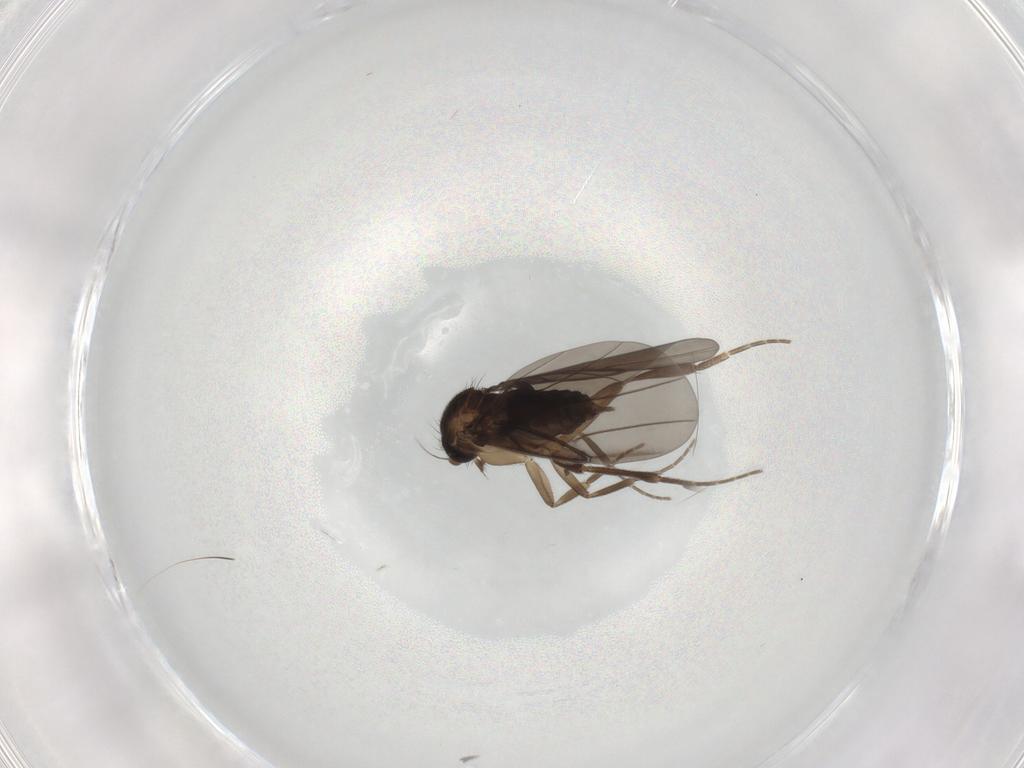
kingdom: Animalia
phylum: Arthropoda
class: Insecta
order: Diptera
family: Phoridae
